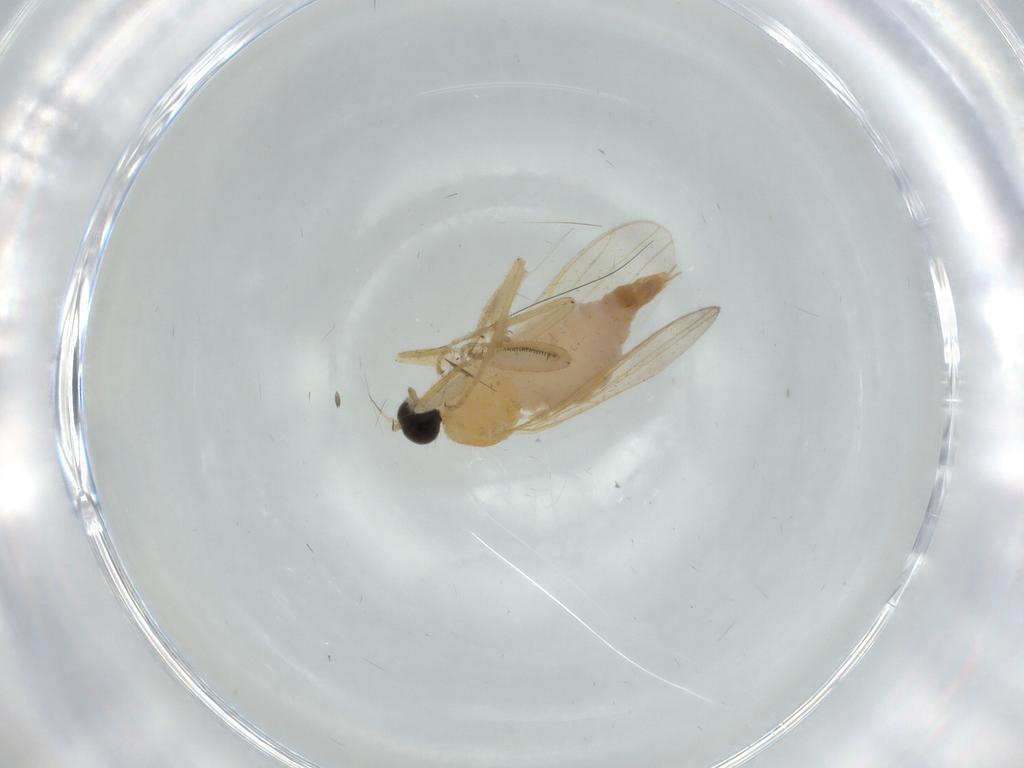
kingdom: Animalia
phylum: Arthropoda
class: Insecta
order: Diptera
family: Hybotidae
